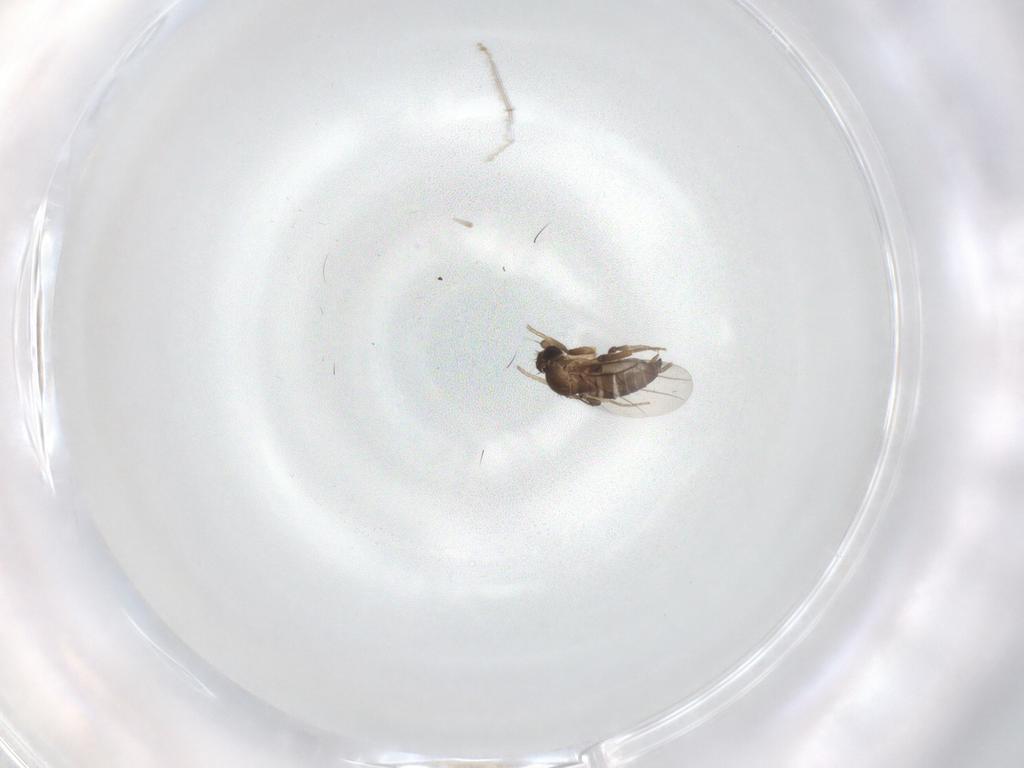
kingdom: Animalia
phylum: Arthropoda
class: Insecta
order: Diptera
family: Cecidomyiidae
